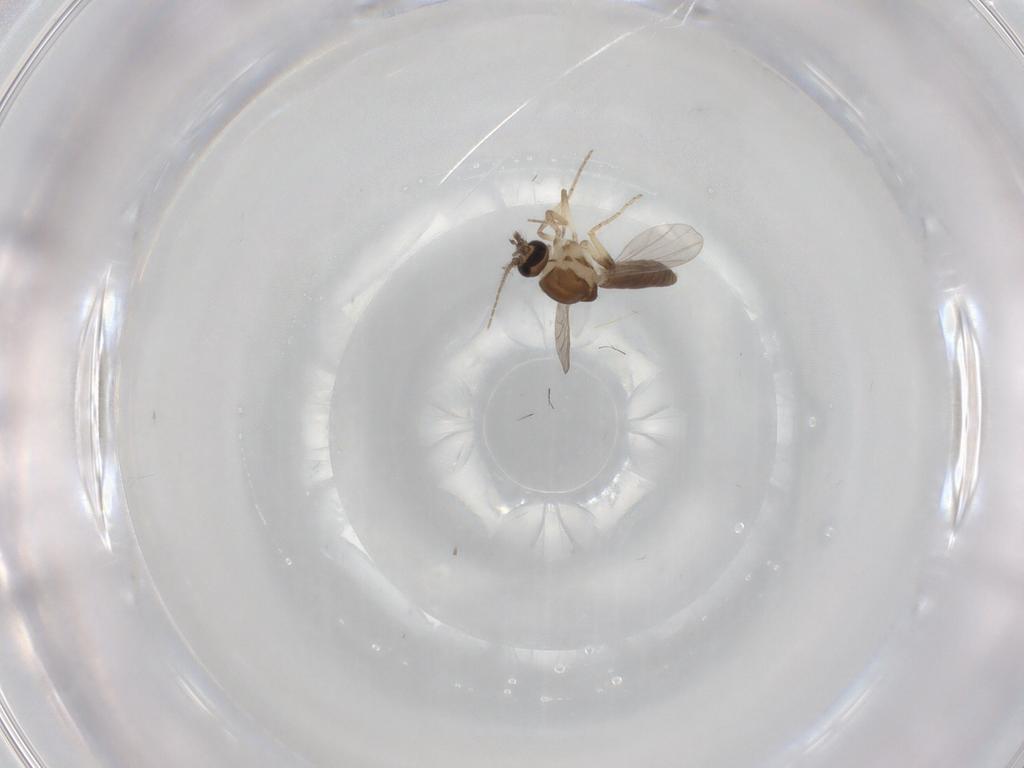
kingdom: Animalia
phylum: Arthropoda
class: Insecta
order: Diptera
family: Ceratopogonidae
